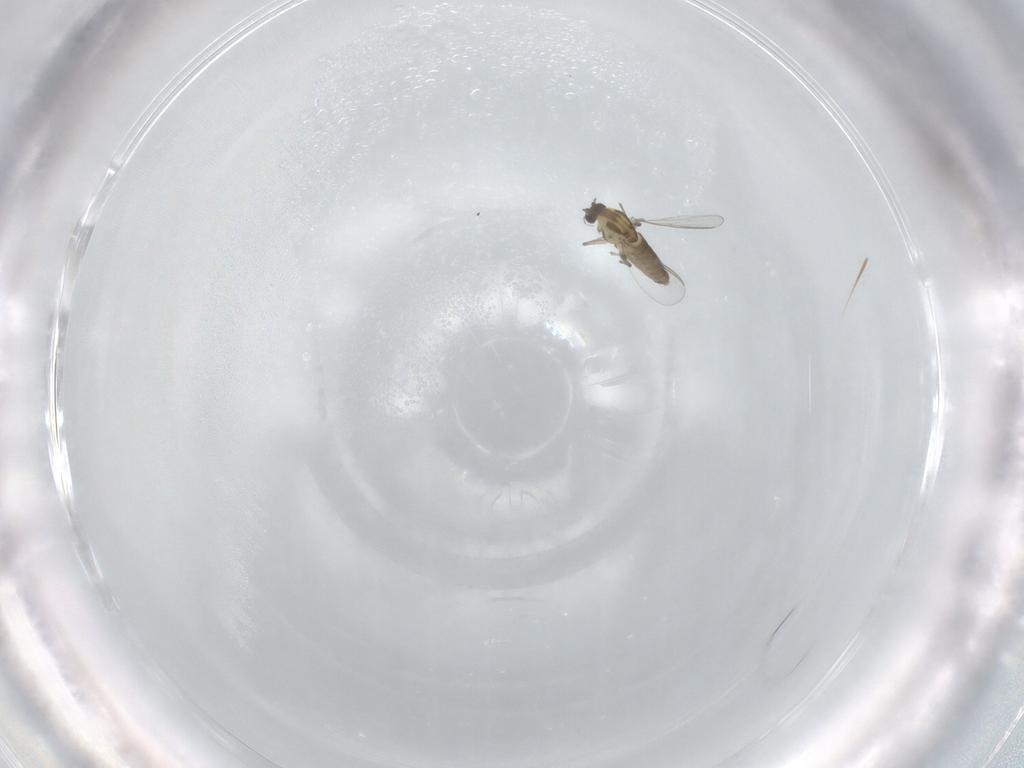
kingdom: Animalia
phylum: Arthropoda
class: Insecta
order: Diptera
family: Chironomidae
